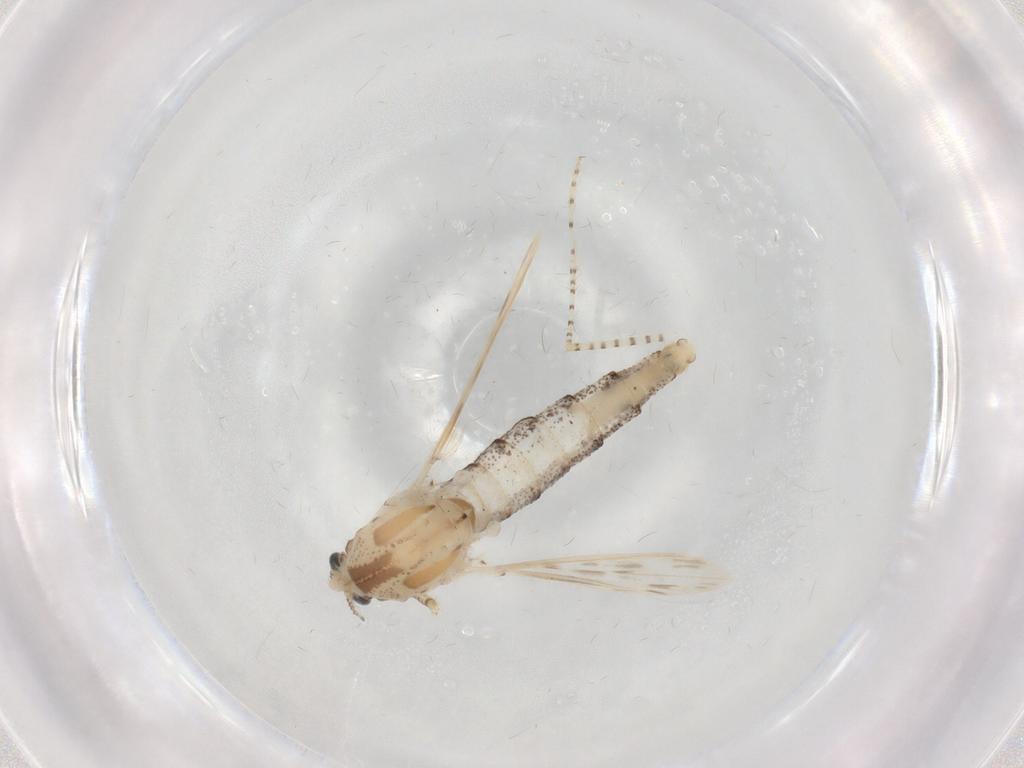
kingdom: Animalia
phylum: Arthropoda
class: Insecta
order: Diptera
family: Chaoboridae
